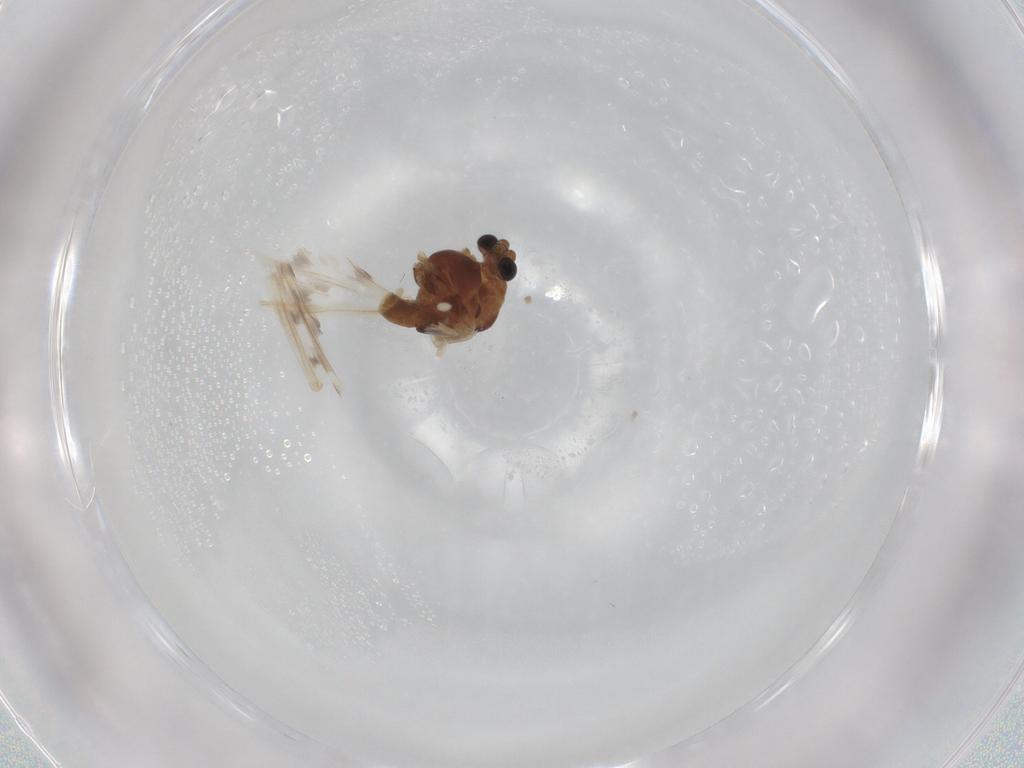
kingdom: Animalia
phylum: Arthropoda
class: Insecta
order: Diptera
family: Chironomidae
